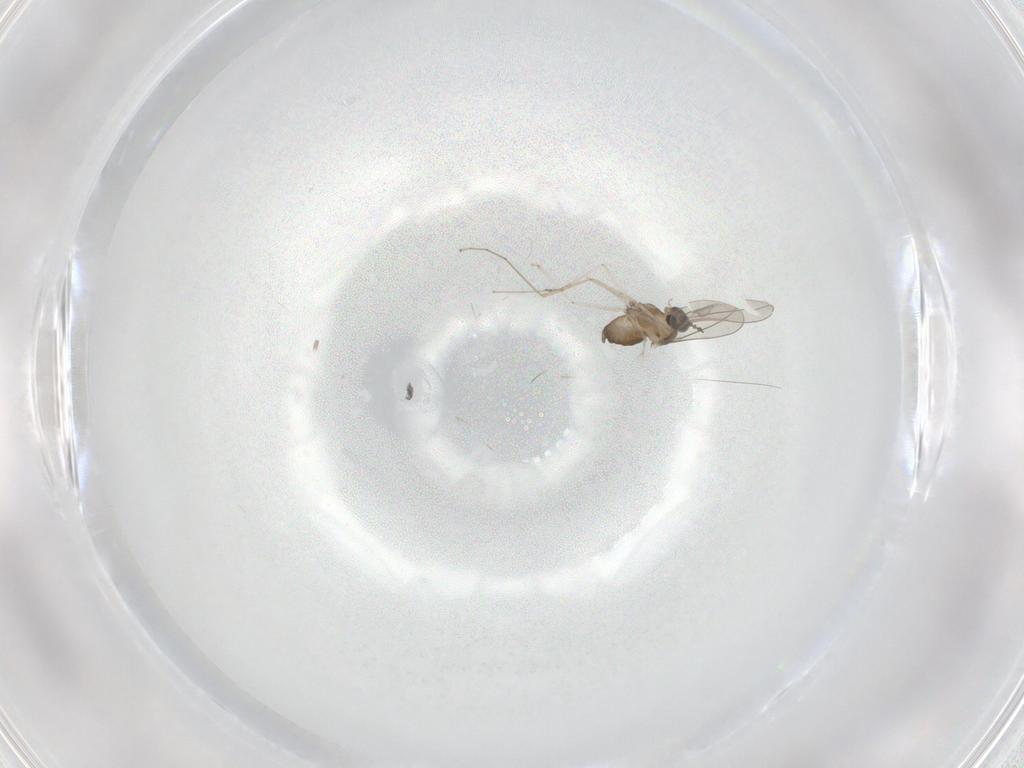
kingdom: Animalia
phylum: Arthropoda
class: Insecta
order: Diptera
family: Cecidomyiidae
